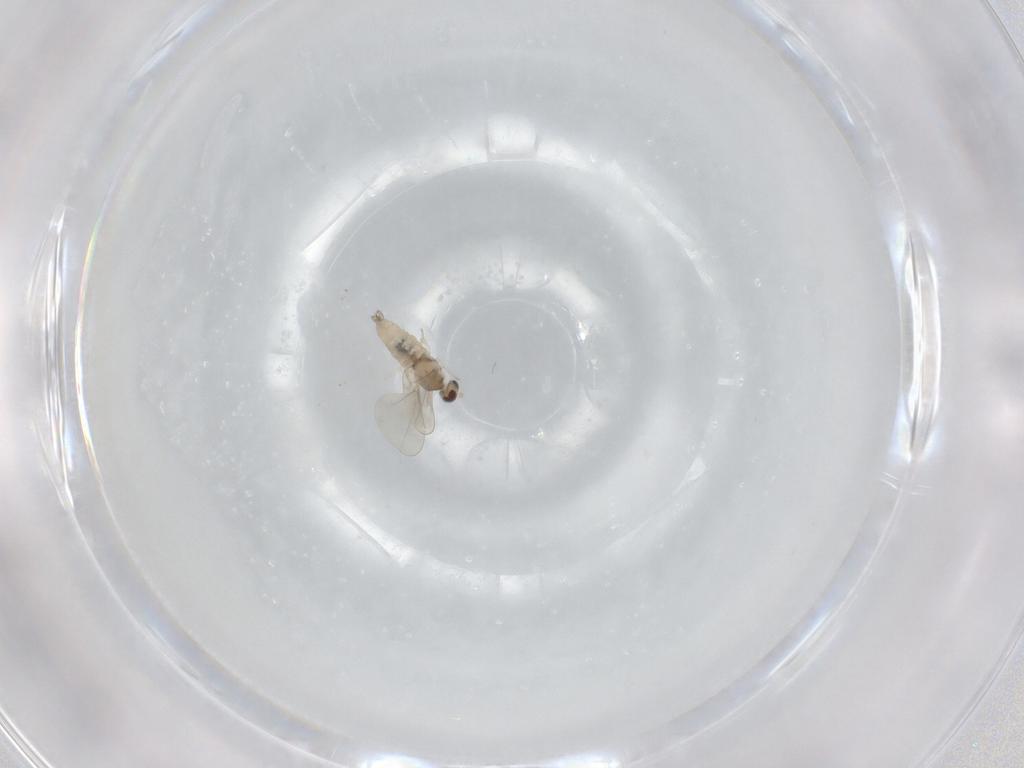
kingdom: Animalia
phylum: Arthropoda
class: Insecta
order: Diptera
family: Cecidomyiidae
